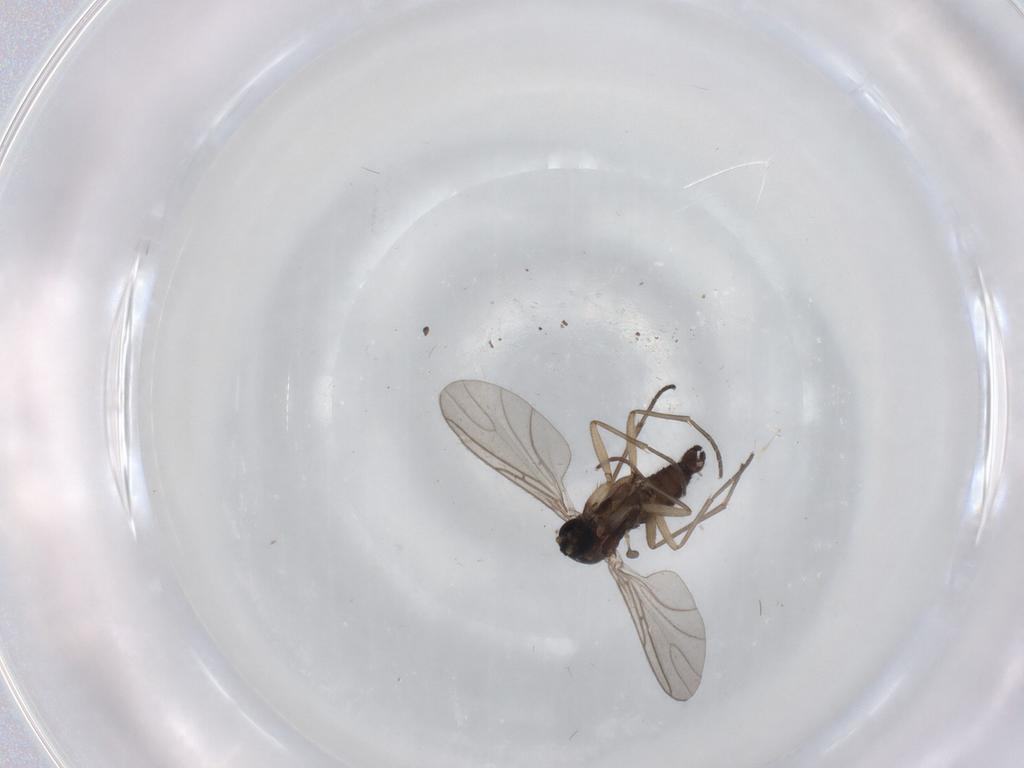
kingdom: Animalia
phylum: Arthropoda
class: Insecta
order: Diptera
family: Sciaridae
